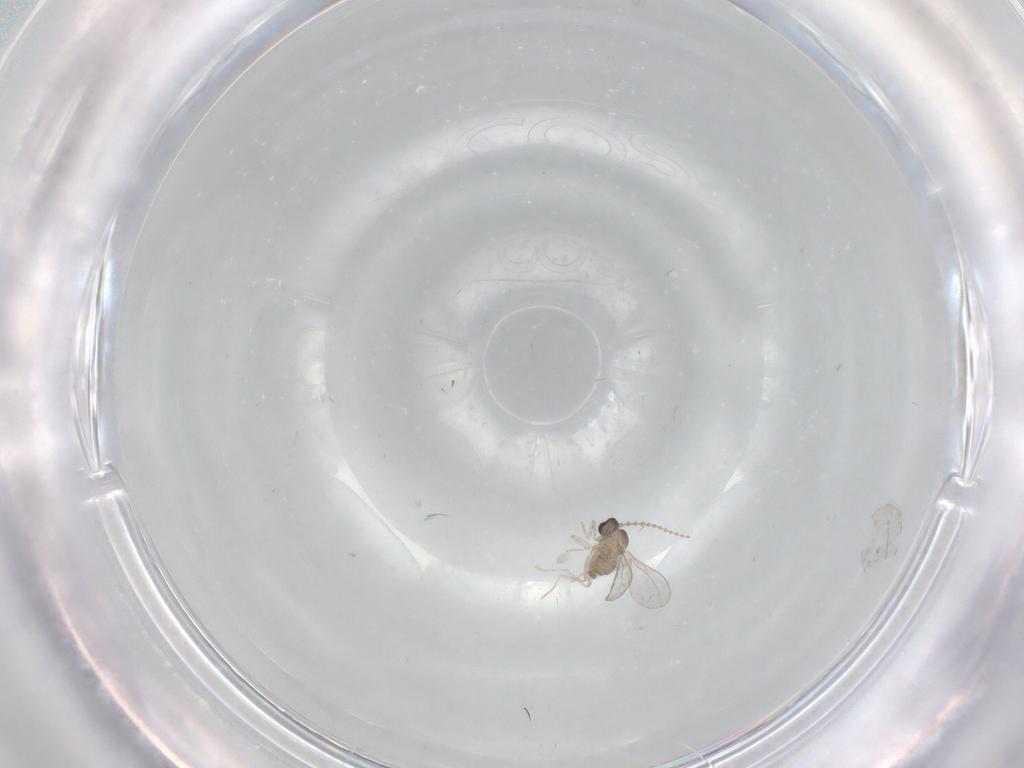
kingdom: Animalia
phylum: Arthropoda
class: Insecta
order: Diptera
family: Cecidomyiidae
